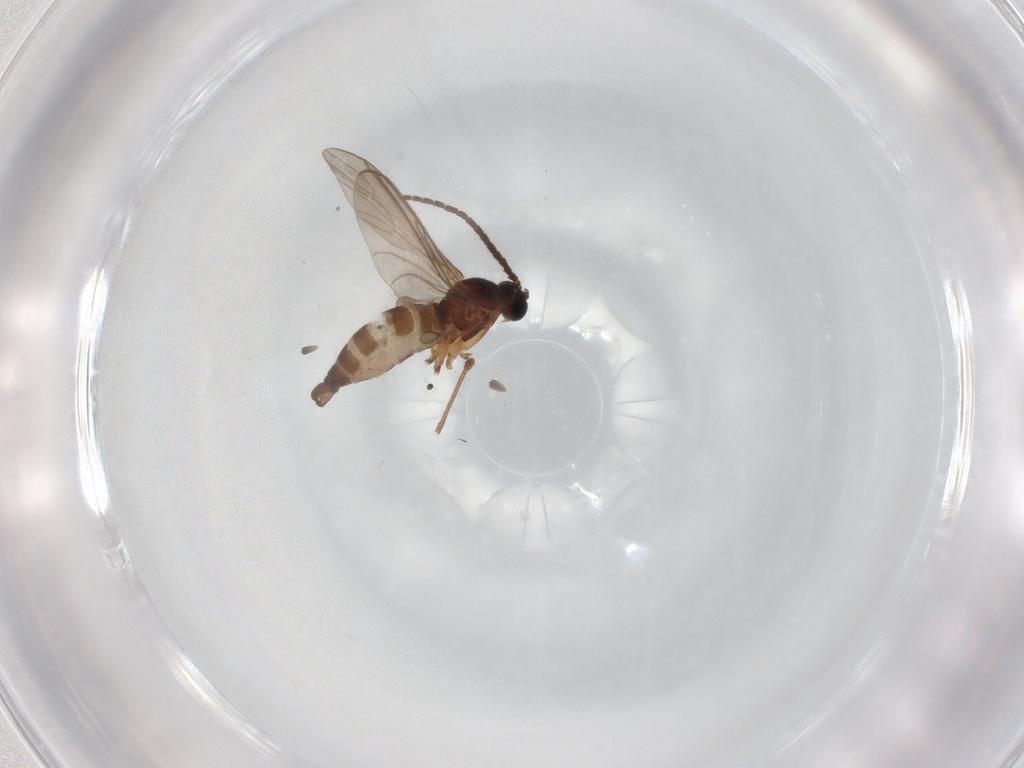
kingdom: Animalia
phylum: Arthropoda
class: Insecta
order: Diptera
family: Sciaridae
